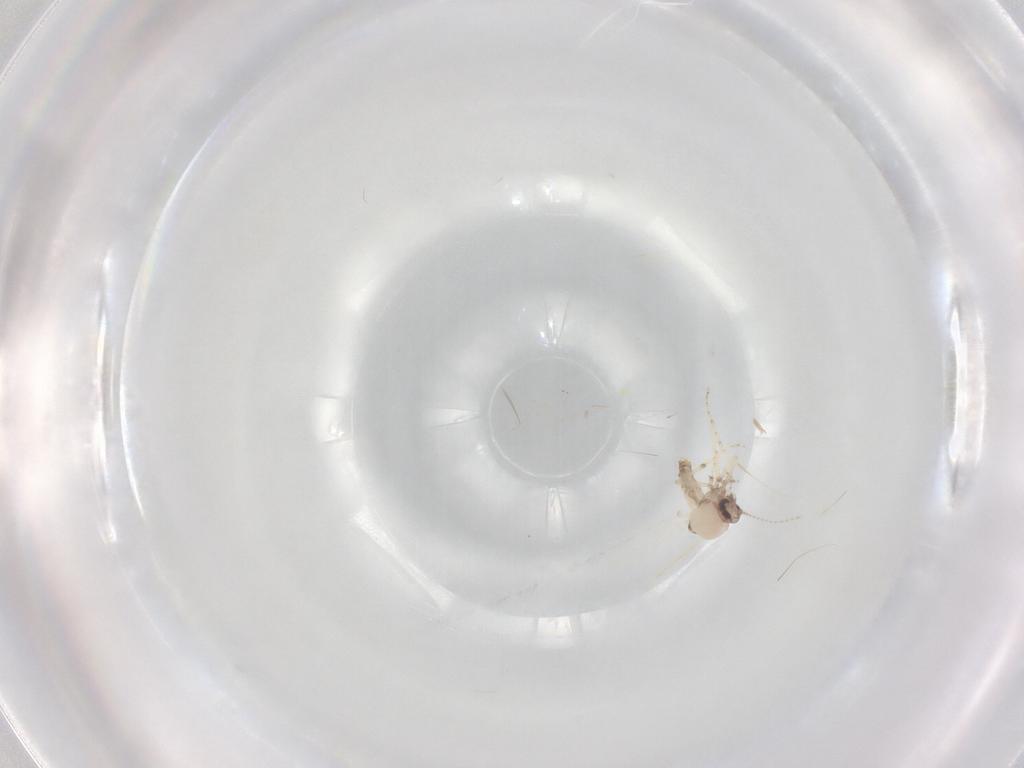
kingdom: Animalia
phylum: Arthropoda
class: Insecta
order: Diptera
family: Ceratopogonidae
